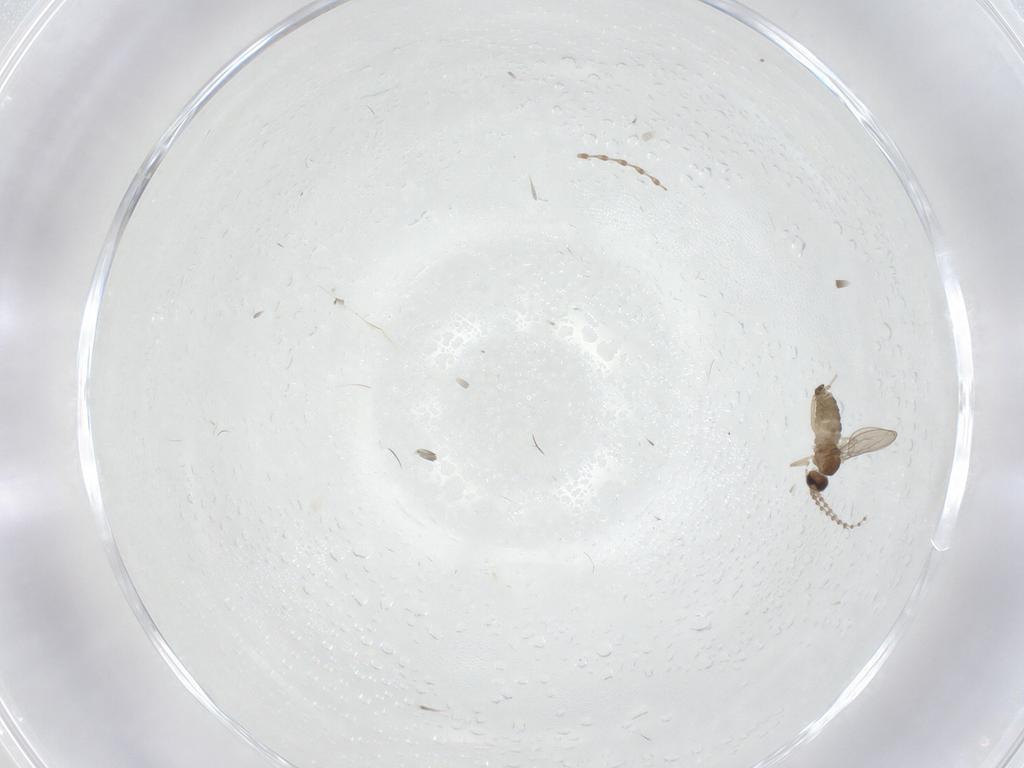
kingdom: Animalia
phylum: Arthropoda
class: Insecta
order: Diptera
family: Cecidomyiidae
